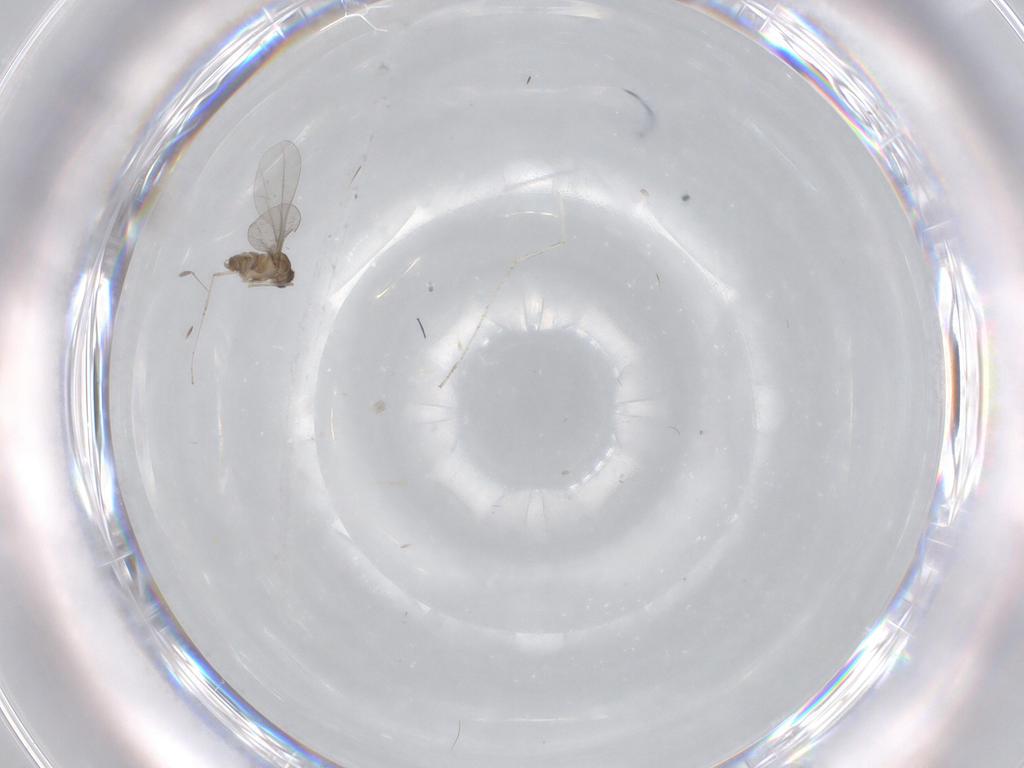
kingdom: Animalia
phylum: Arthropoda
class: Insecta
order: Diptera
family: Cecidomyiidae
